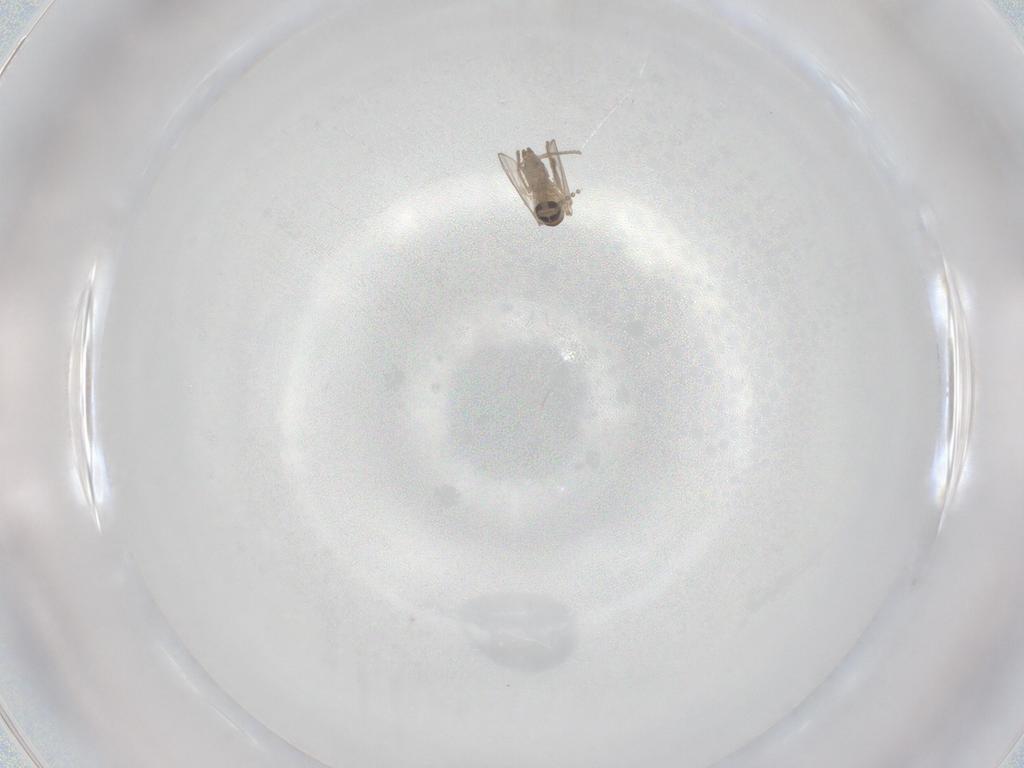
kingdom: Animalia
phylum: Arthropoda
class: Insecta
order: Diptera
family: Psychodidae
